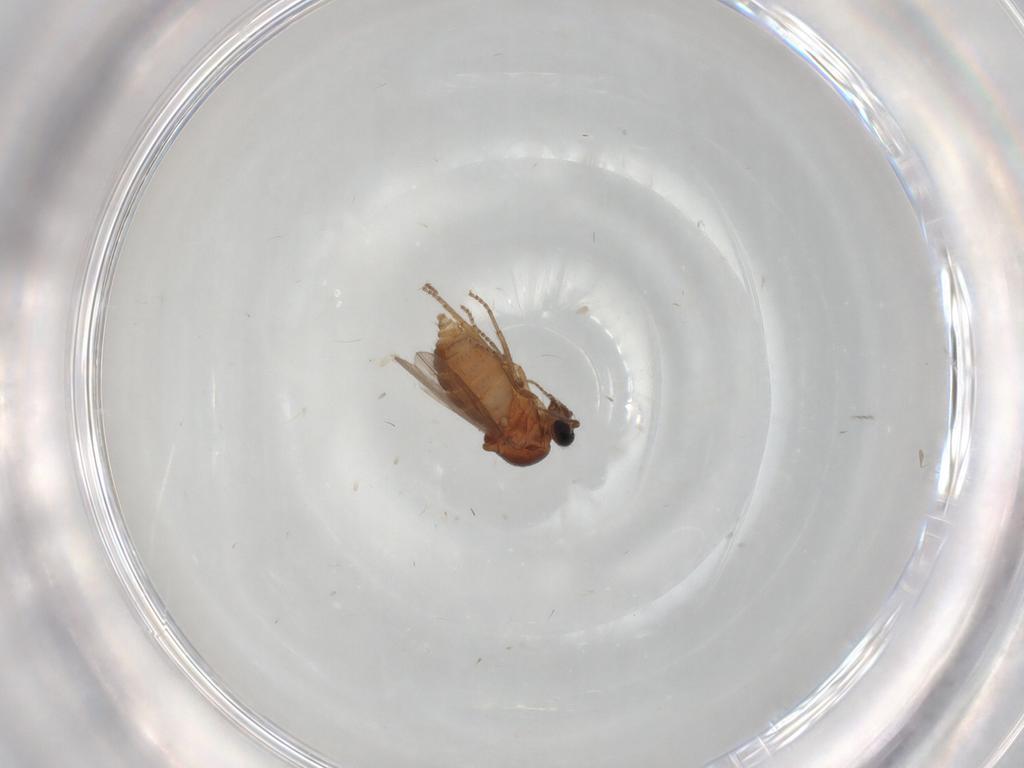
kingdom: Animalia
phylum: Arthropoda
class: Insecta
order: Diptera
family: Ceratopogonidae
